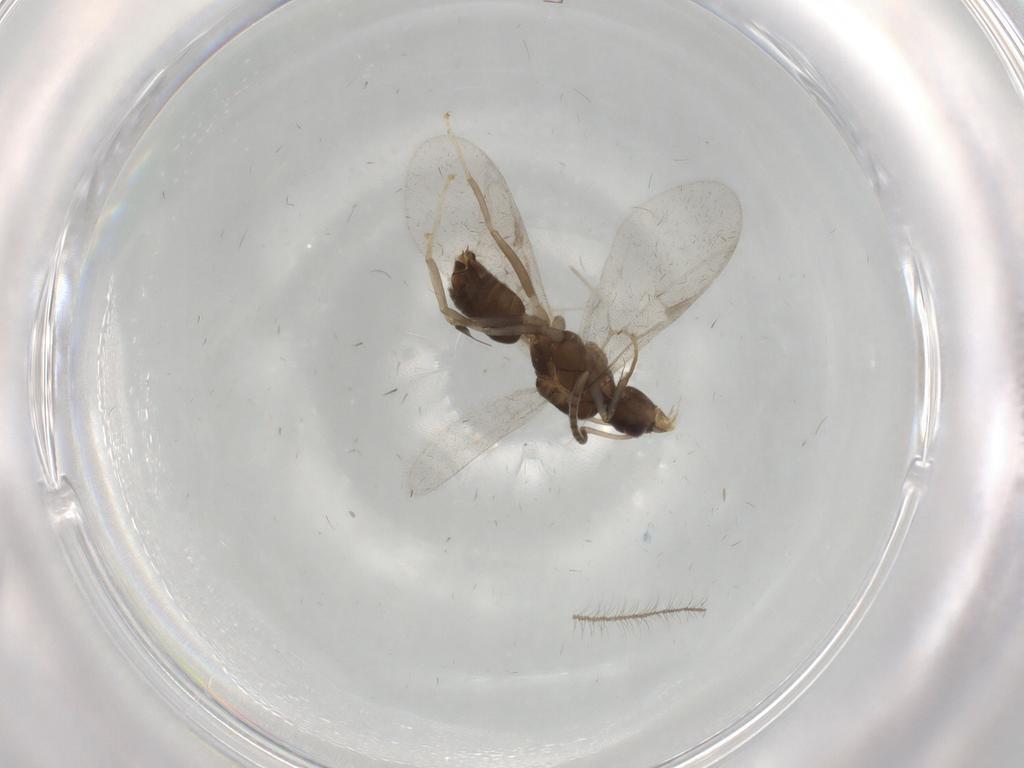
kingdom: Animalia
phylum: Arthropoda
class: Insecta
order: Hymenoptera
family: Formicidae
